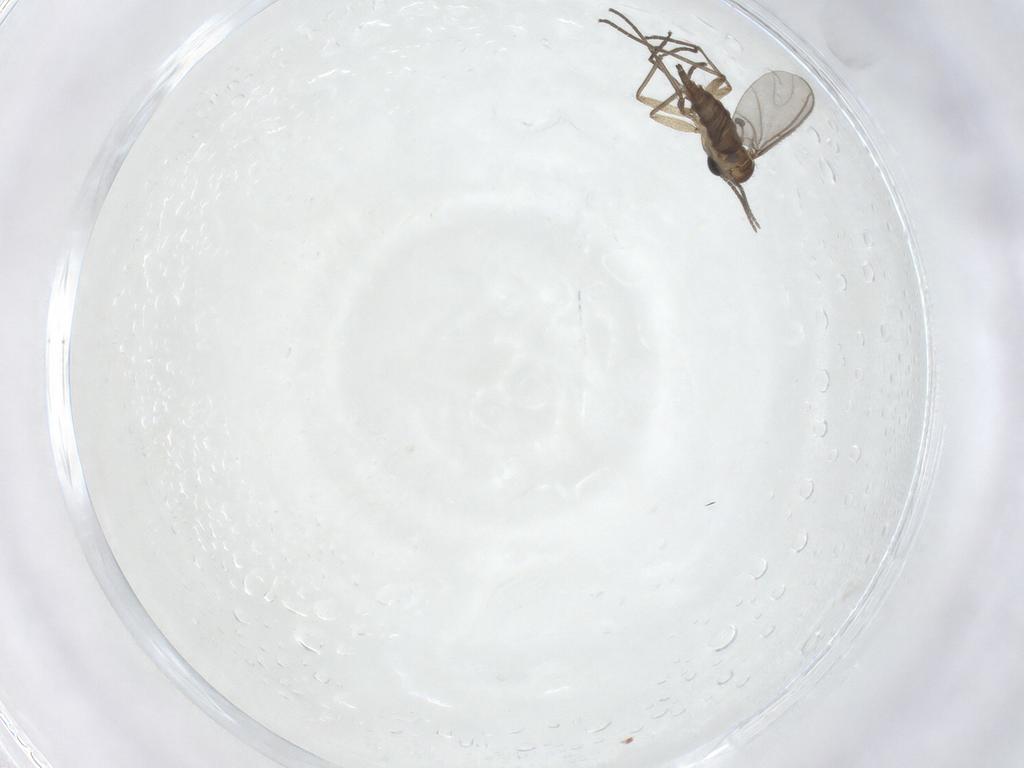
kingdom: Animalia
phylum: Arthropoda
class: Insecta
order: Diptera
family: Sciaridae
